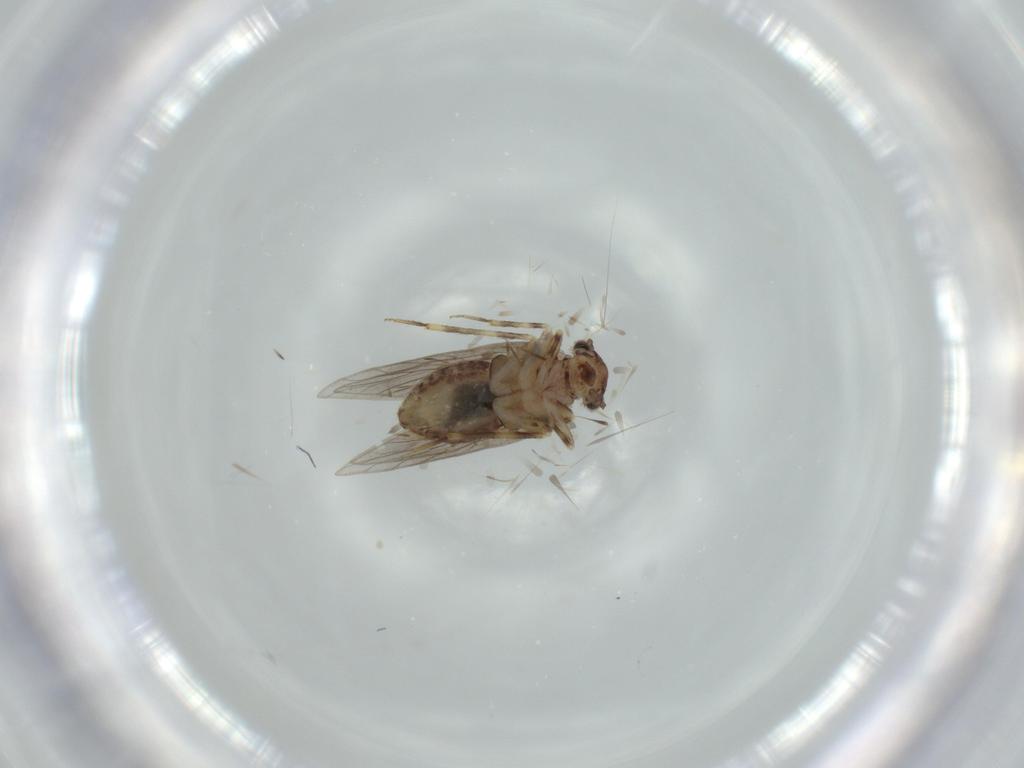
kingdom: Animalia
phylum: Arthropoda
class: Insecta
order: Psocodea
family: Lepidopsocidae
